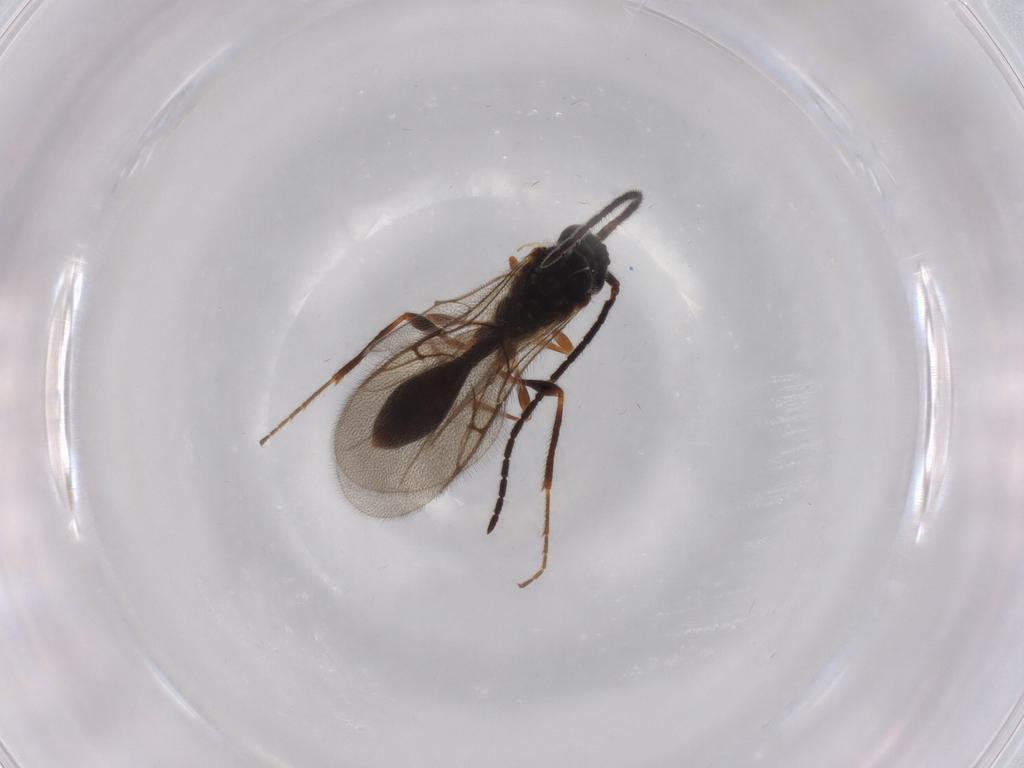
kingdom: Animalia
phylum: Arthropoda
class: Insecta
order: Hymenoptera
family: Diapriidae
